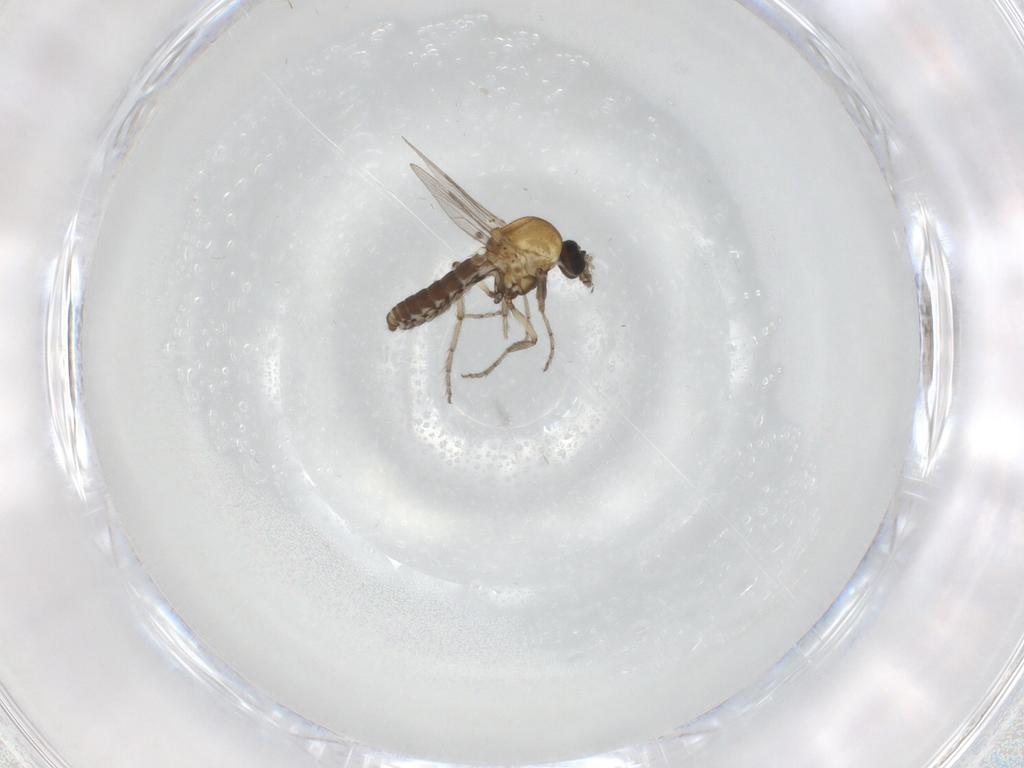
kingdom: Animalia
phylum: Arthropoda
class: Insecta
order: Diptera
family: Ceratopogonidae
